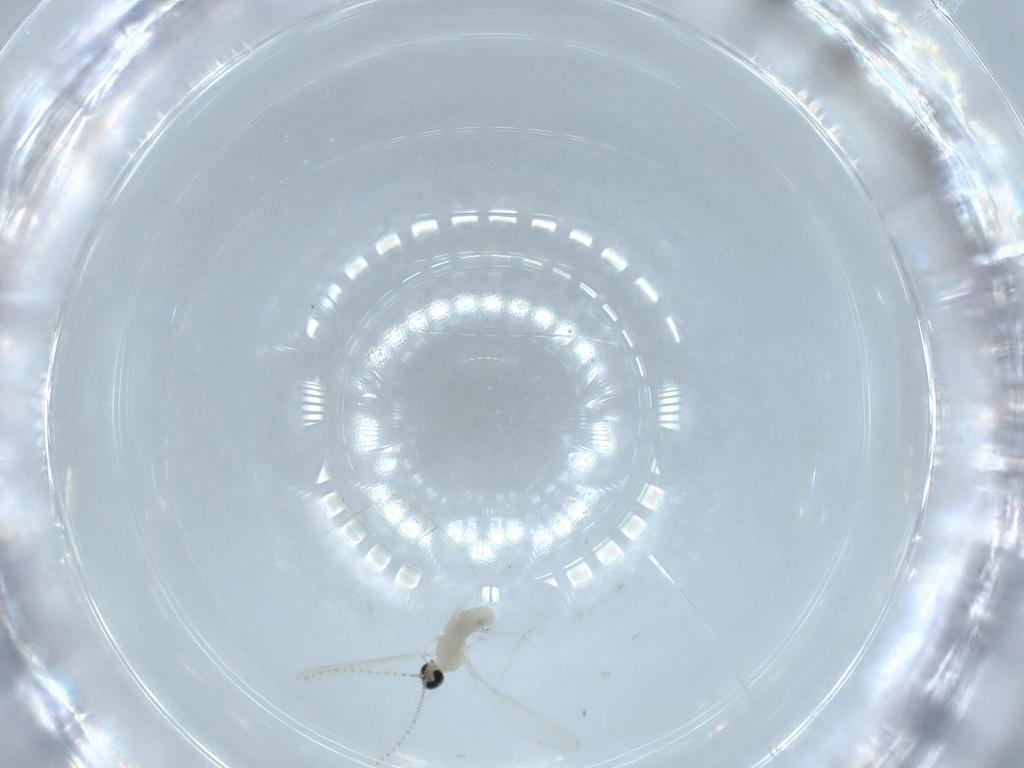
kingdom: Animalia
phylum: Arthropoda
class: Insecta
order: Diptera
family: Cecidomyiidae
